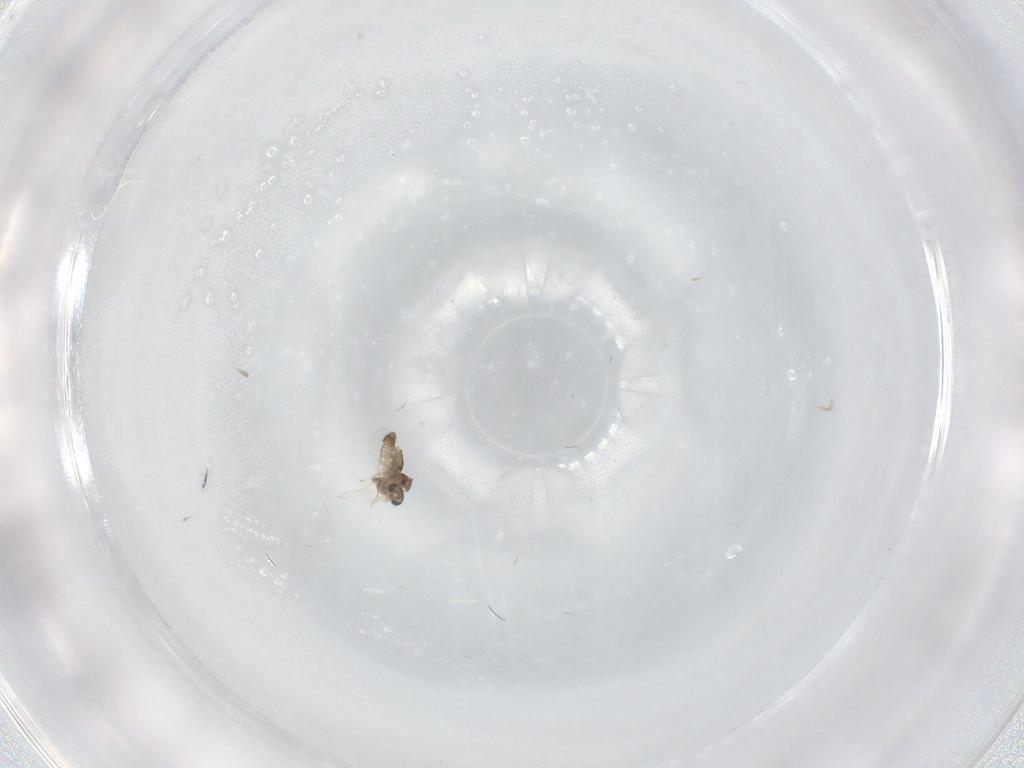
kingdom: Animalia
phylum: Arthropoda
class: Insecta
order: Diptera
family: Chironomidae
